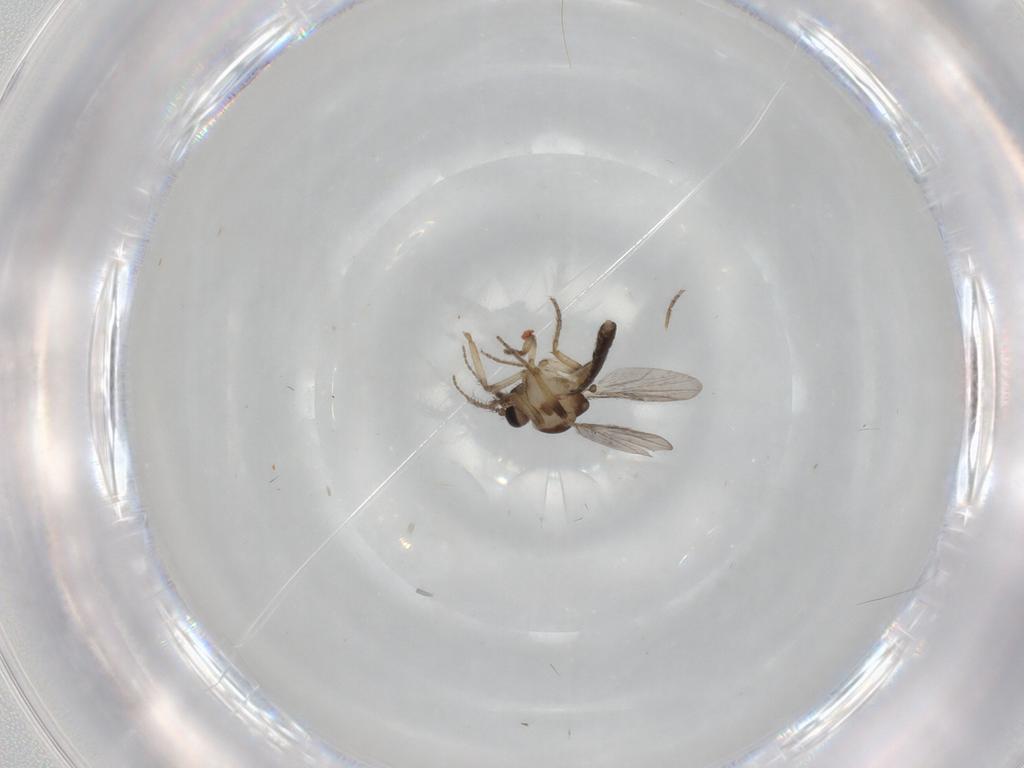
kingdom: Animalia
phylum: Arthropoda
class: Insecta
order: Diptera
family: Ceratopogonidae
